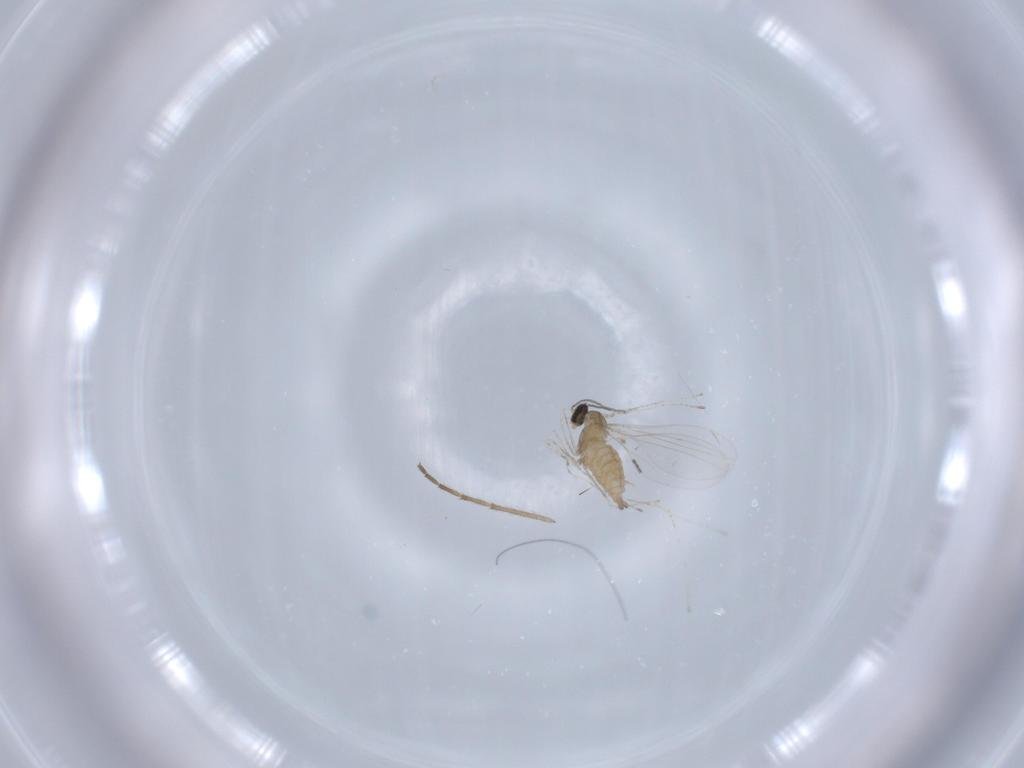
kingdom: Animalia
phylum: Arthropoda
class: Insecta
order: Diptera
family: Cecidomyiidae
